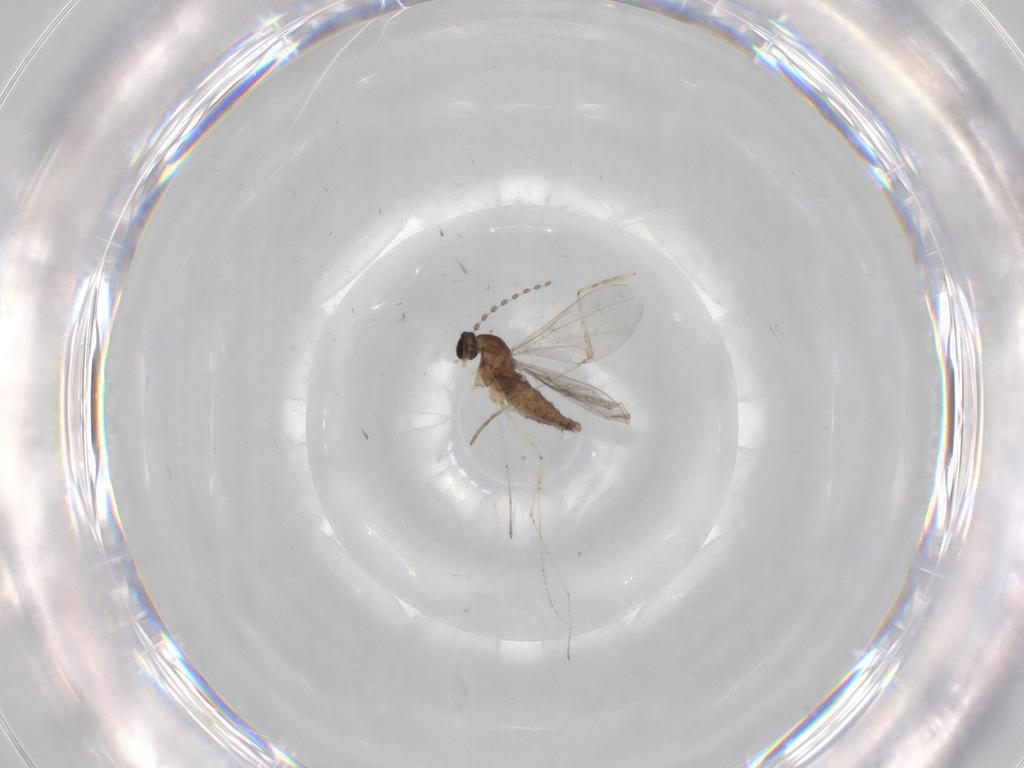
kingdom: Animalia
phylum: Arthropoda
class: Insecta
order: Diptera
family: Cecidomyiidae
